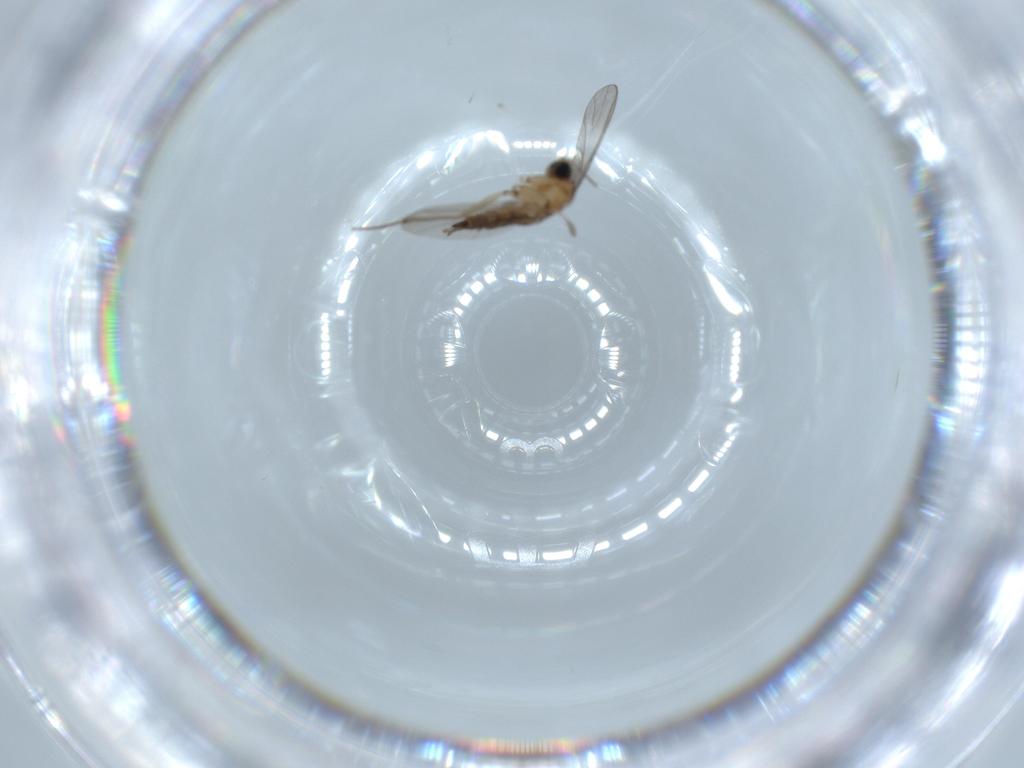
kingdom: Animalia
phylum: Arthropoda
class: Insecta
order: Diptera
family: Sciaridae
